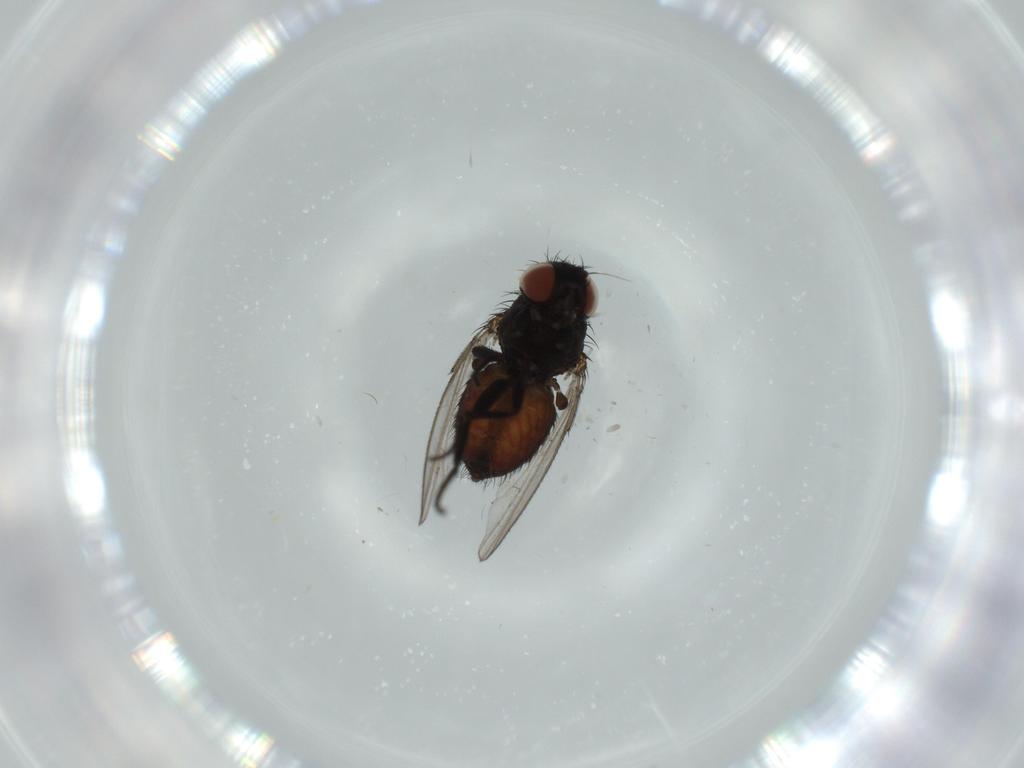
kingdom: Animalia
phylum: Arthropoda
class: Insecta
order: Diptera
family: Milichiidae
